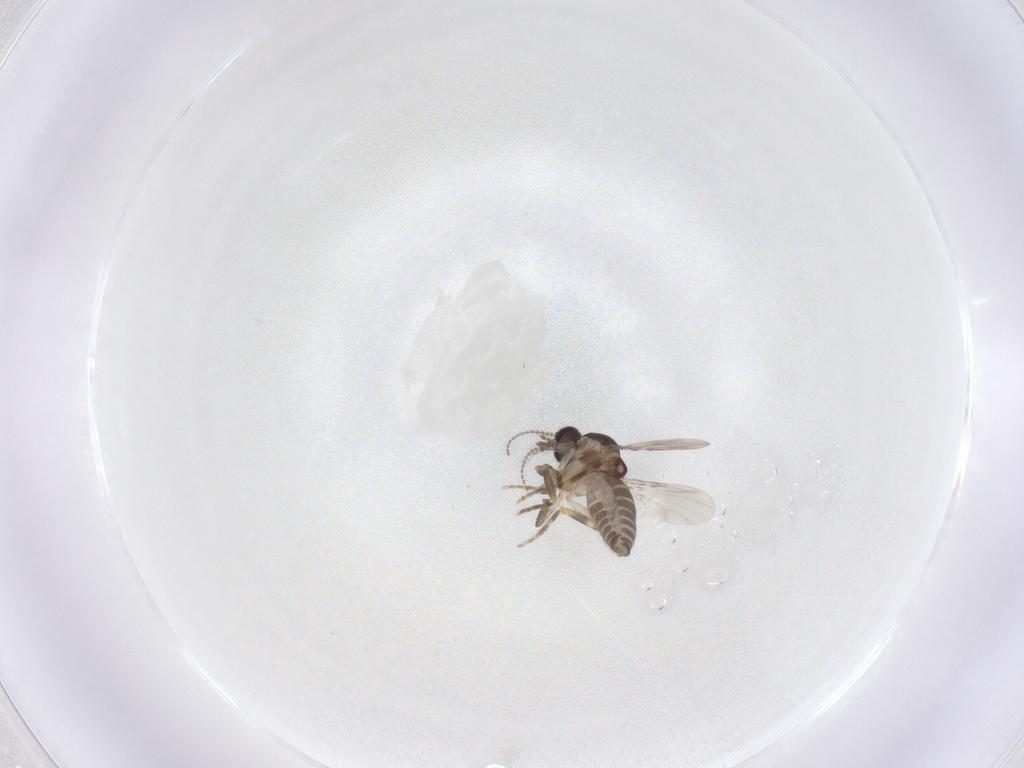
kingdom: Animalia
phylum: Arthropoda
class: Insecta
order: Diptera
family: Ceratopogonidae
